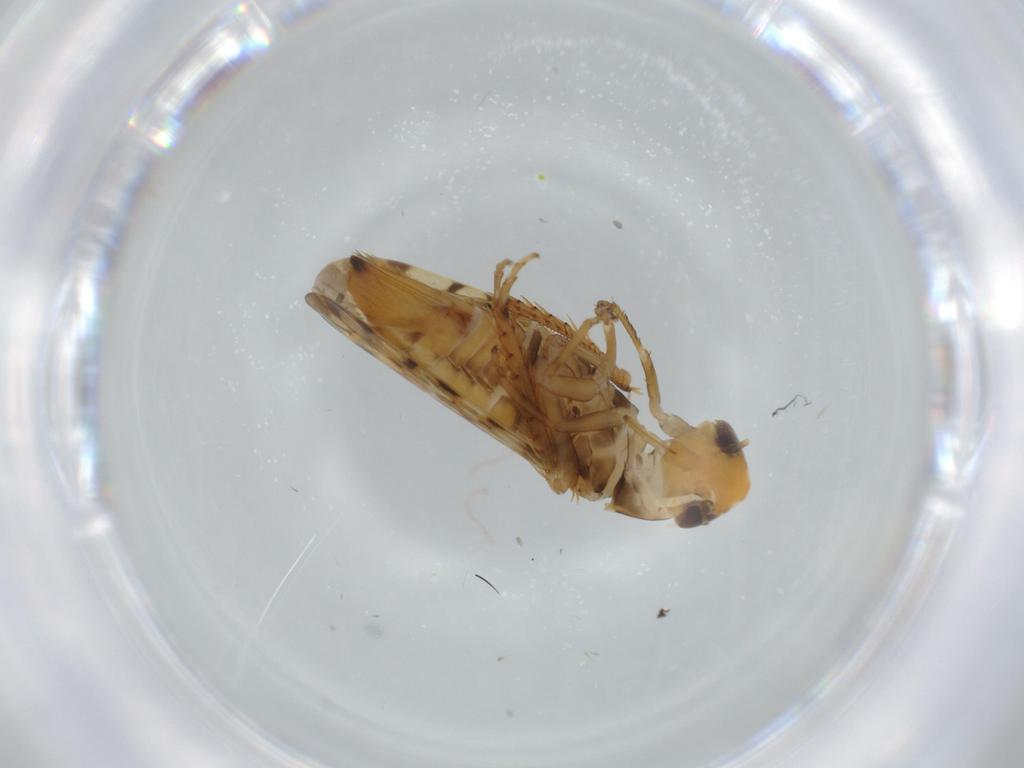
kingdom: Animalia
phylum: Arthropoda
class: Insecta
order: Hemiptera
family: Cicadellidae
